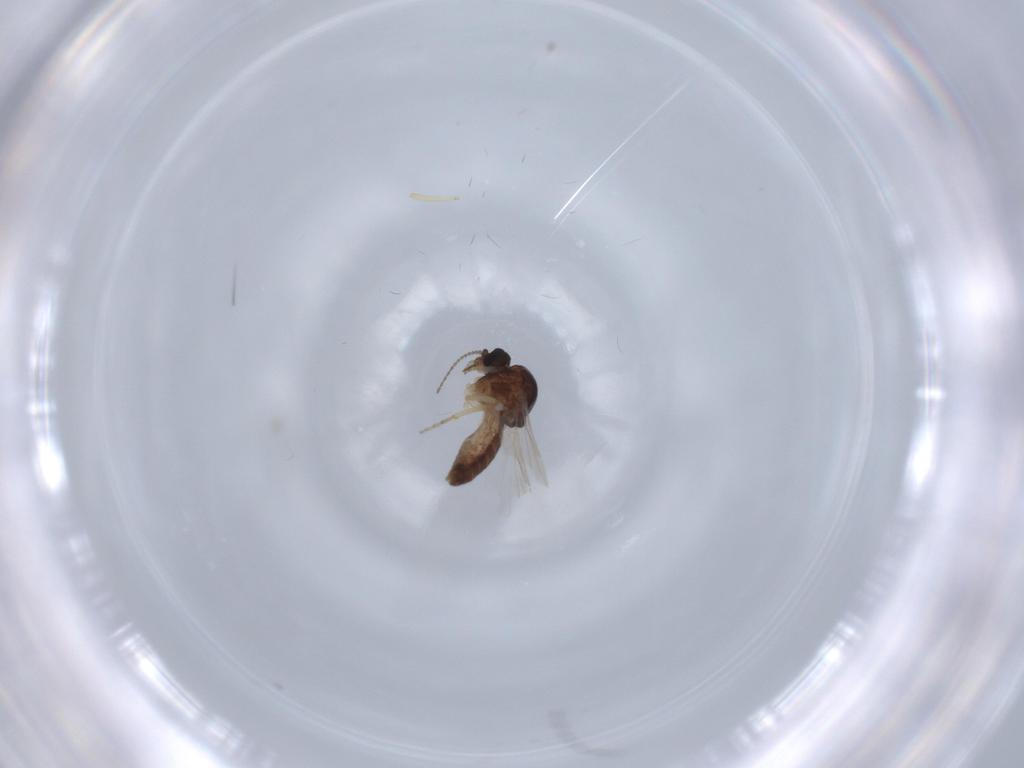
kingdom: Animalia
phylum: Arthropoda
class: Insecta
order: Diptera
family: Ceratopogonidae
